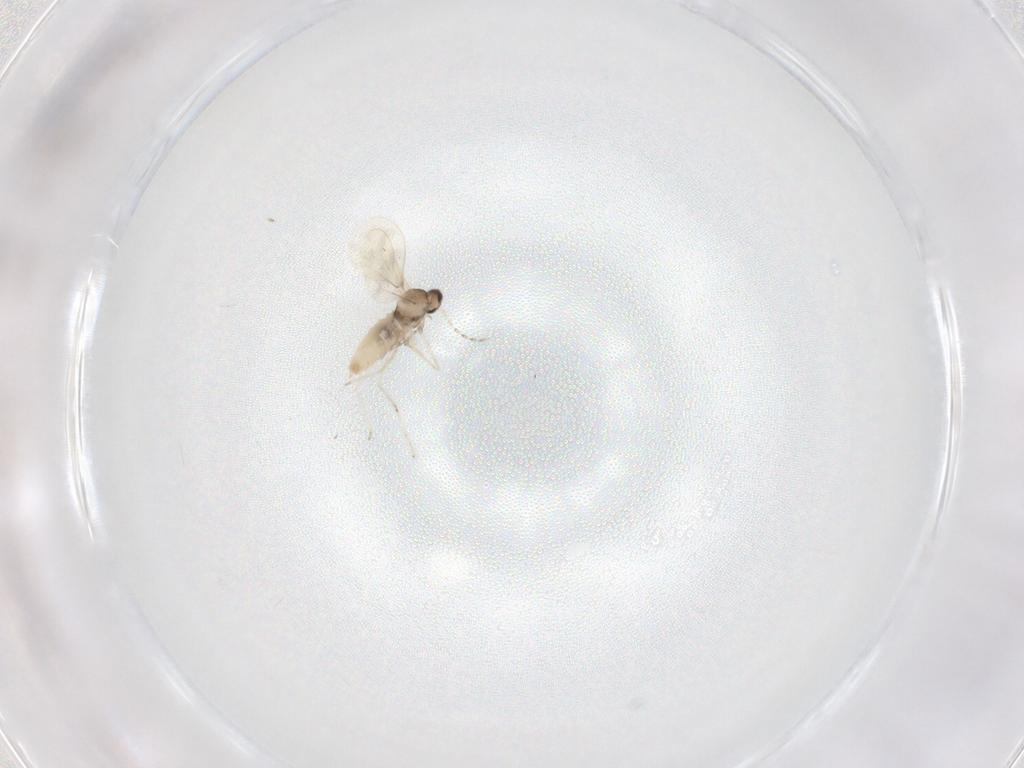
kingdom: Animalia
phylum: Arthropoda
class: Insecta
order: Diptera
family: Cecidomyiidae
